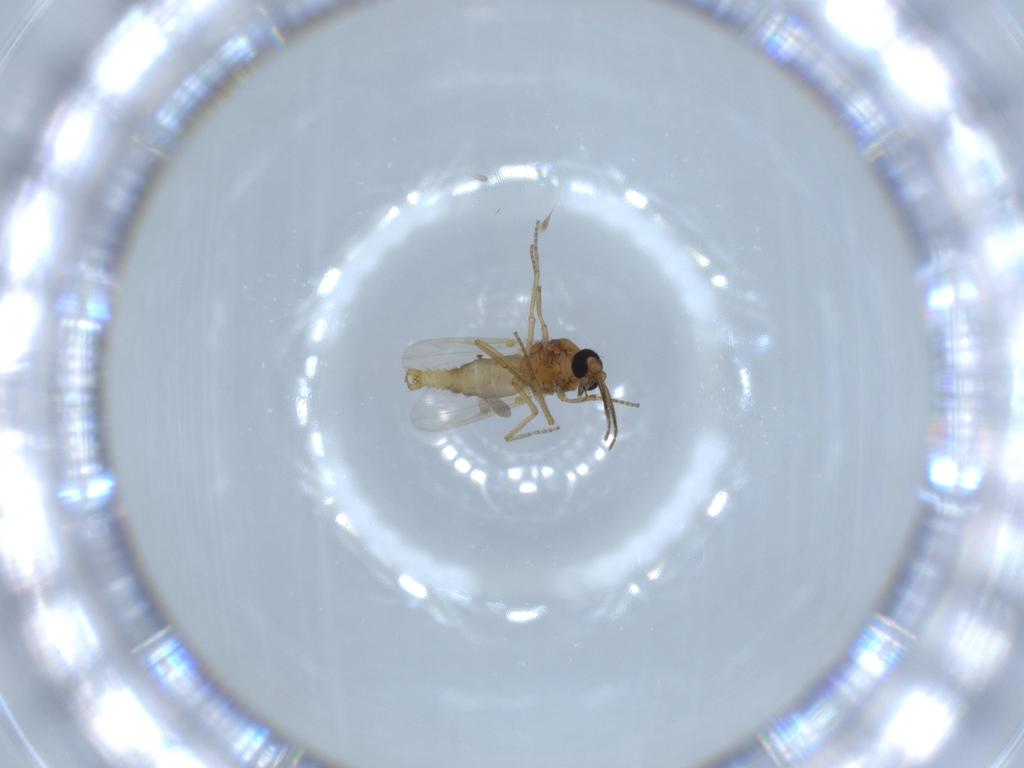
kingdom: Animalia
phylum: Arthropoda
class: Insecta
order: Diptera
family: Ceratopogonidae
